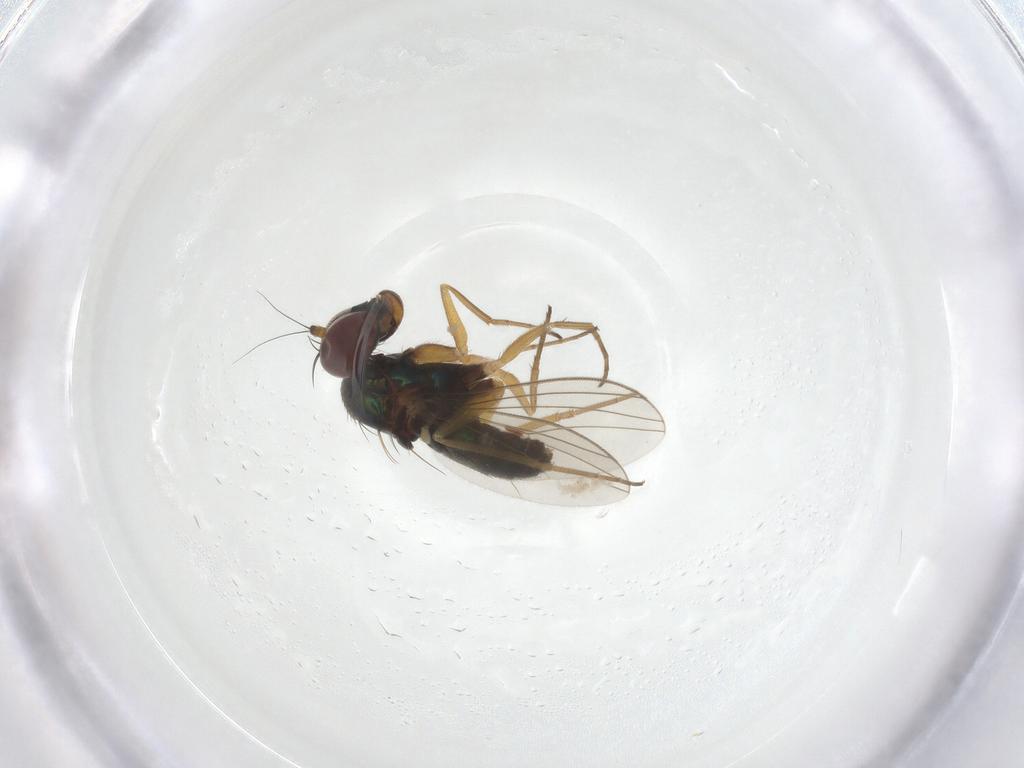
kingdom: Animalia
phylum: Arthropoda
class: Insecta
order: Diptera
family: Dolichopodidae
